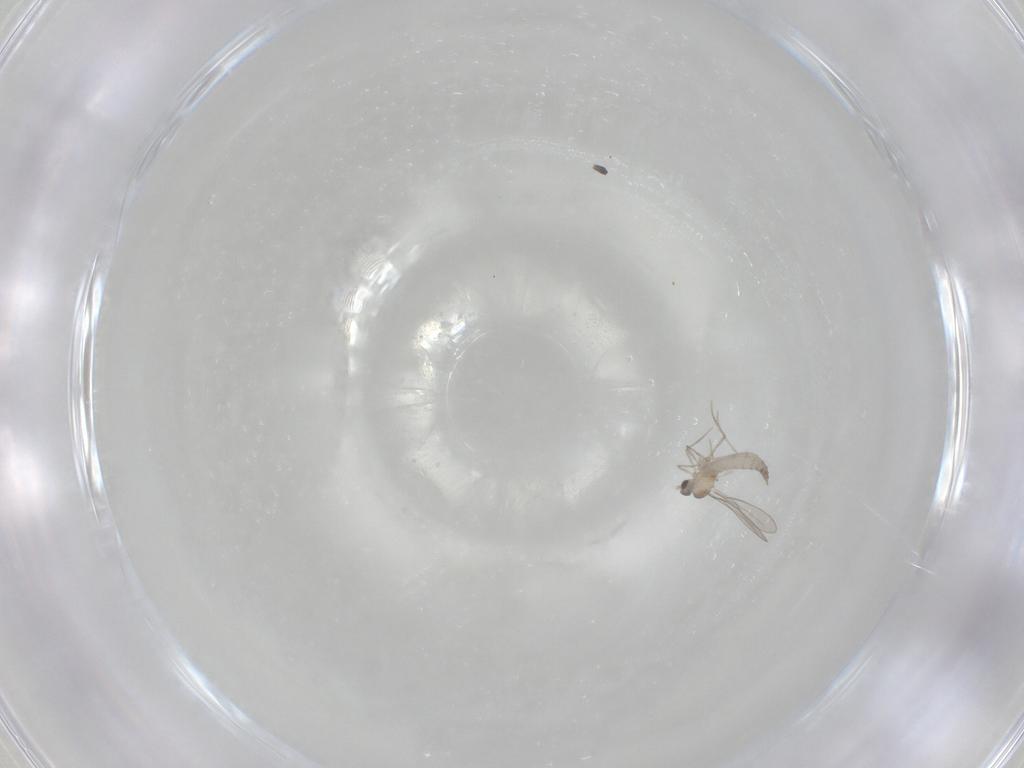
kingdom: Animalia
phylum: Arthropoda
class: Insecta
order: Diptera
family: Cecidomyiidae
